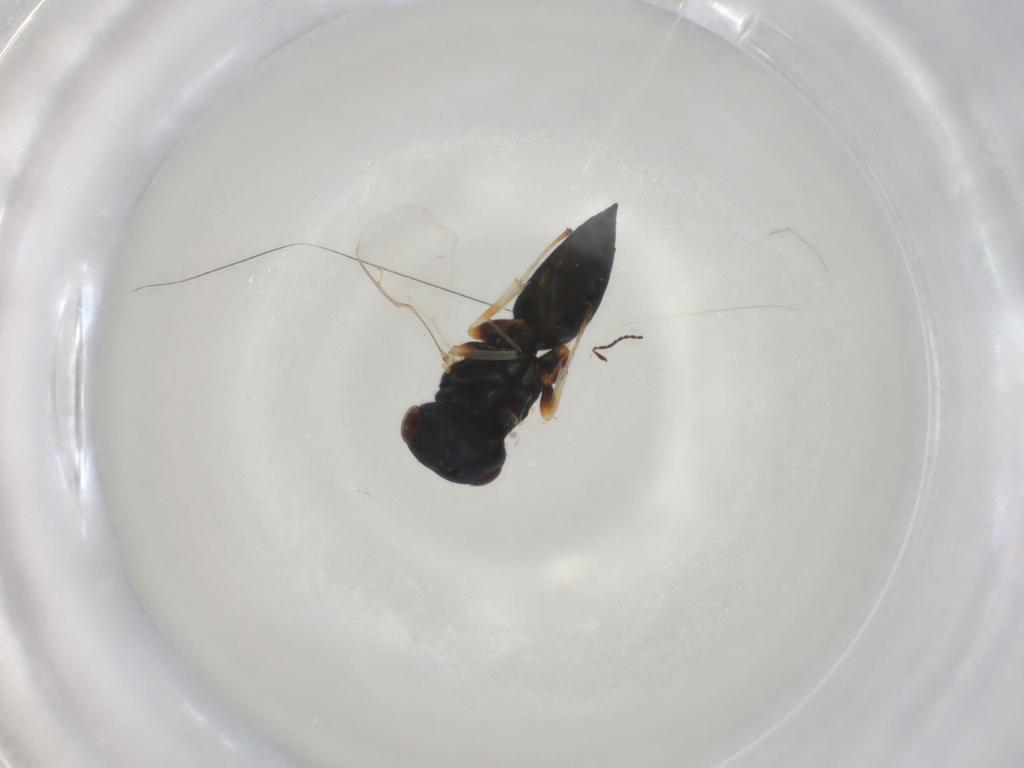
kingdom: Animalia
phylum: Arthropoda
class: Insecta
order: Hymenoptera
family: Pteromalidae
